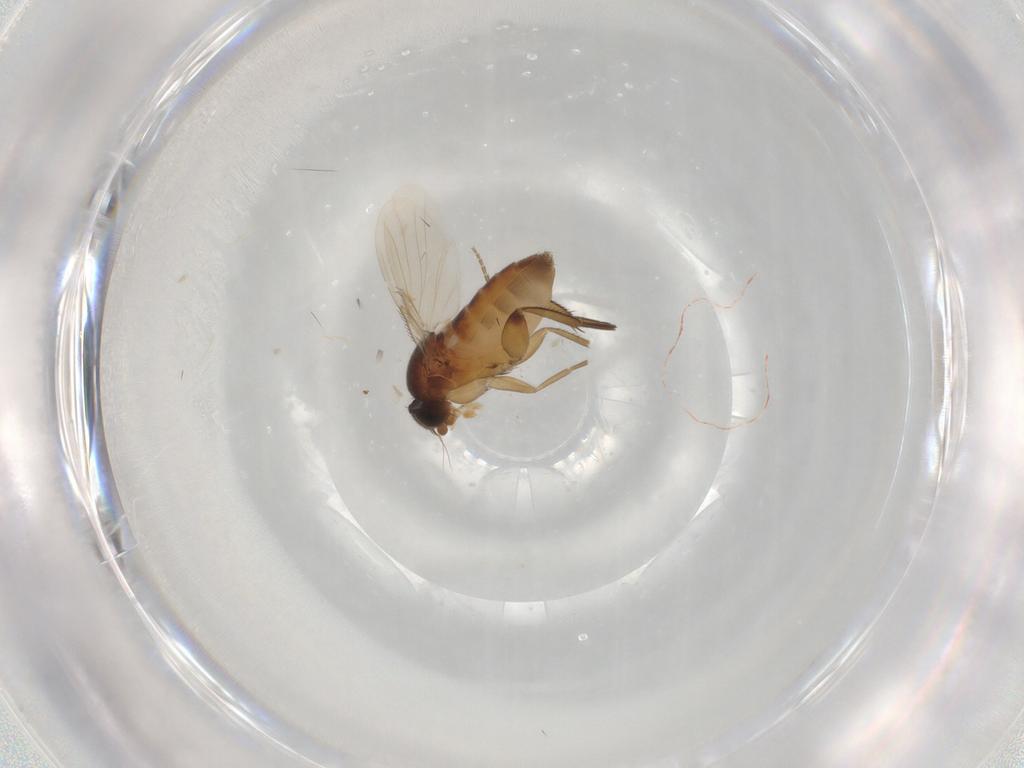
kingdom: Animalia
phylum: Arthropoda
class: Insecta
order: Diptera
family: Phoridae
